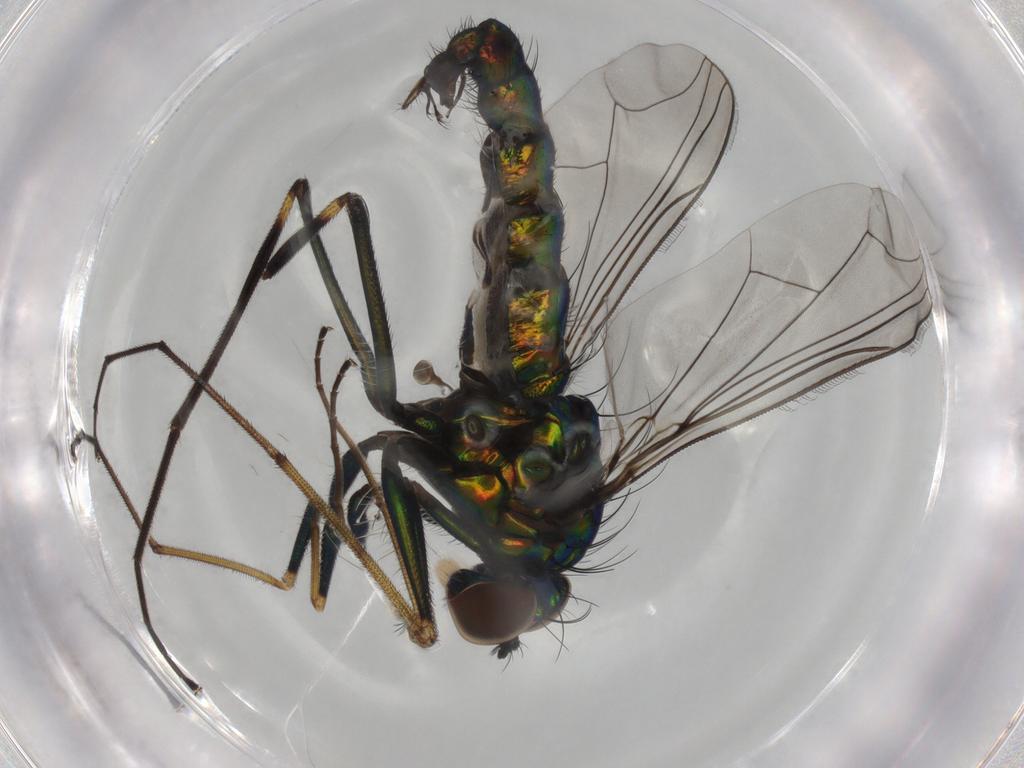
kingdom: Animalia
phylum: Arthropoda
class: Insecta
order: Diptera
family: Dolichopodidae
